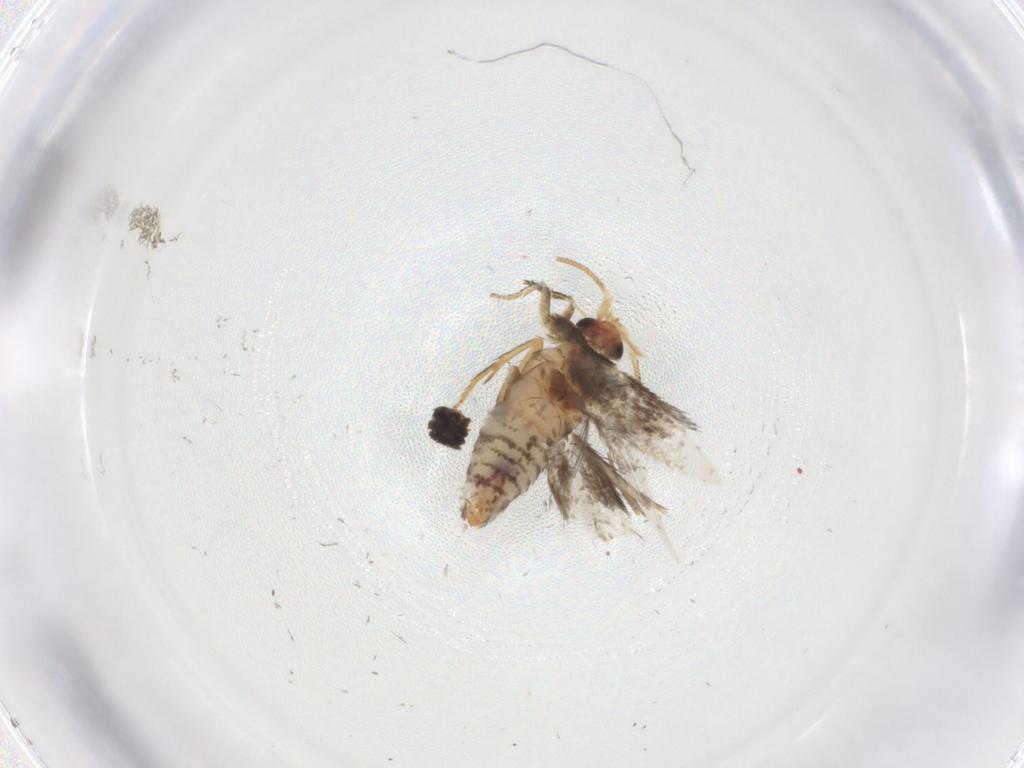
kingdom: Animalia
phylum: Arthropoda
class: Insecta
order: Lepidoptera
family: Nepticulidae
